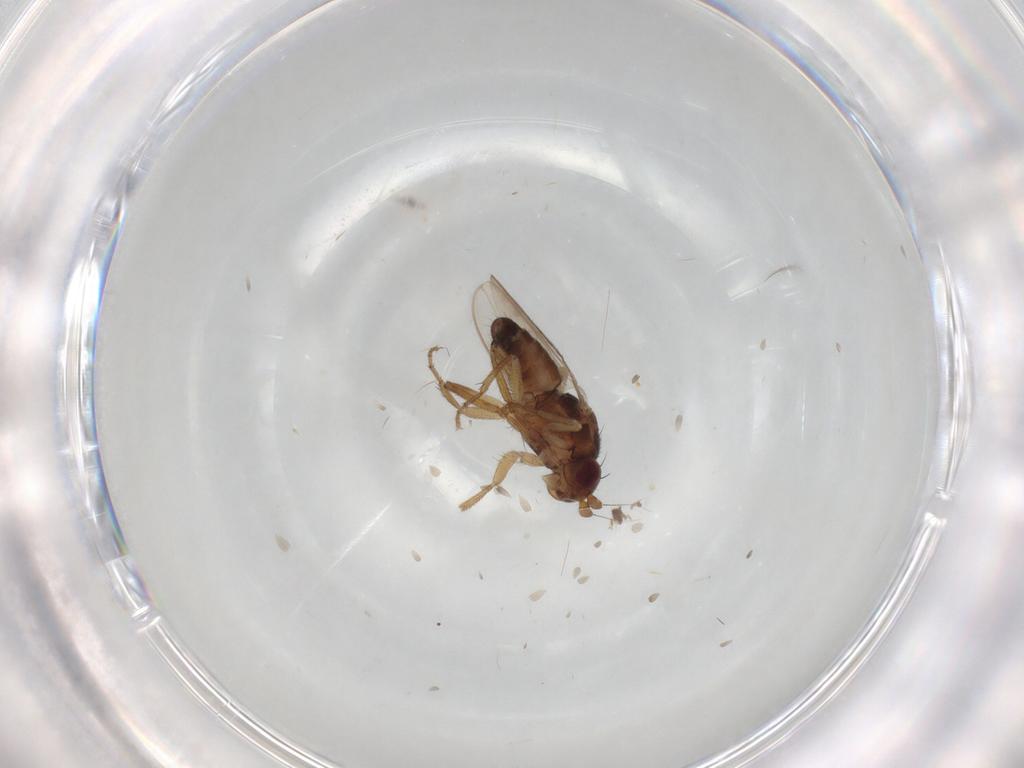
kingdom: Animalia
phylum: Arthropoda
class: Insecta
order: Diptera
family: Sphaeroceridae
